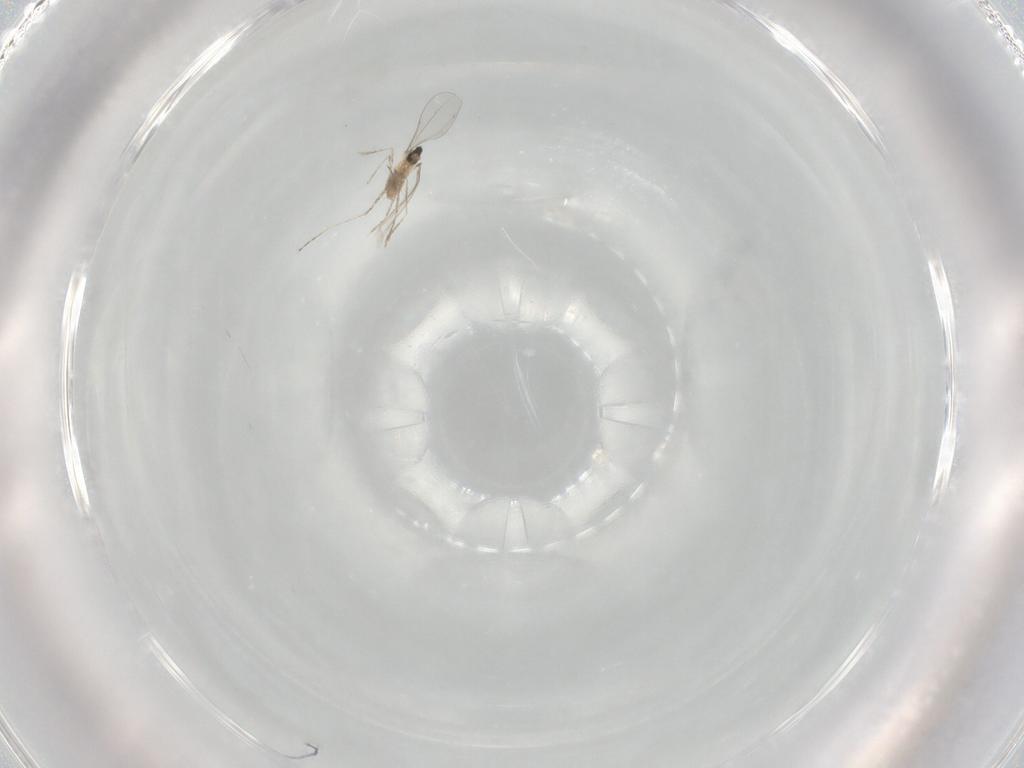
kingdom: Animalia
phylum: Arthropoda
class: Insecta
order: Diptera
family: Cecidomyiidae
